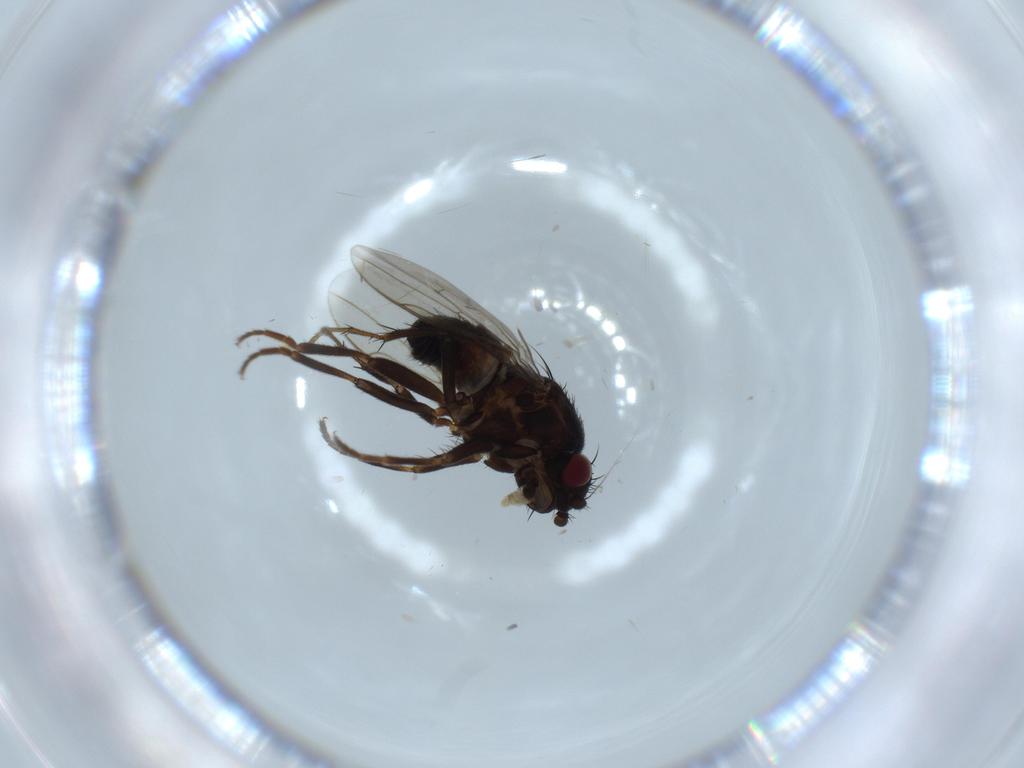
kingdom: Animalia
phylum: Arthropoda
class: Insecta
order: Diptera
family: Sphaeroceridae
